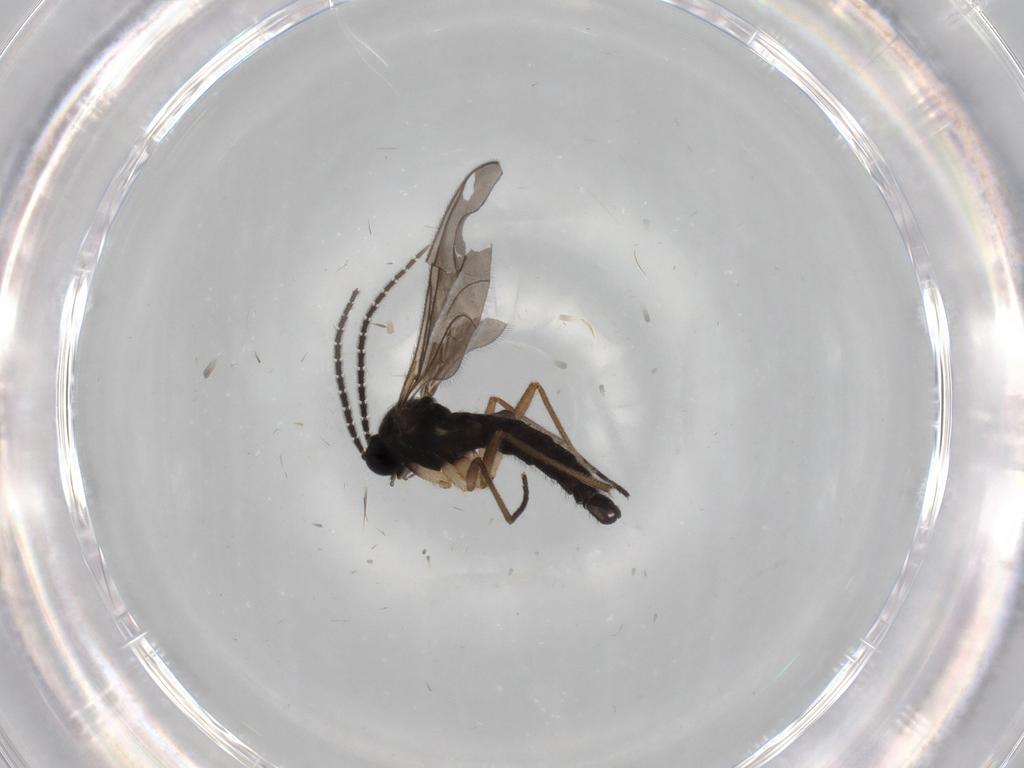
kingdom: Animalia
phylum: Arthropoda
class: Insecta
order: Diptera
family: Sciaridae
